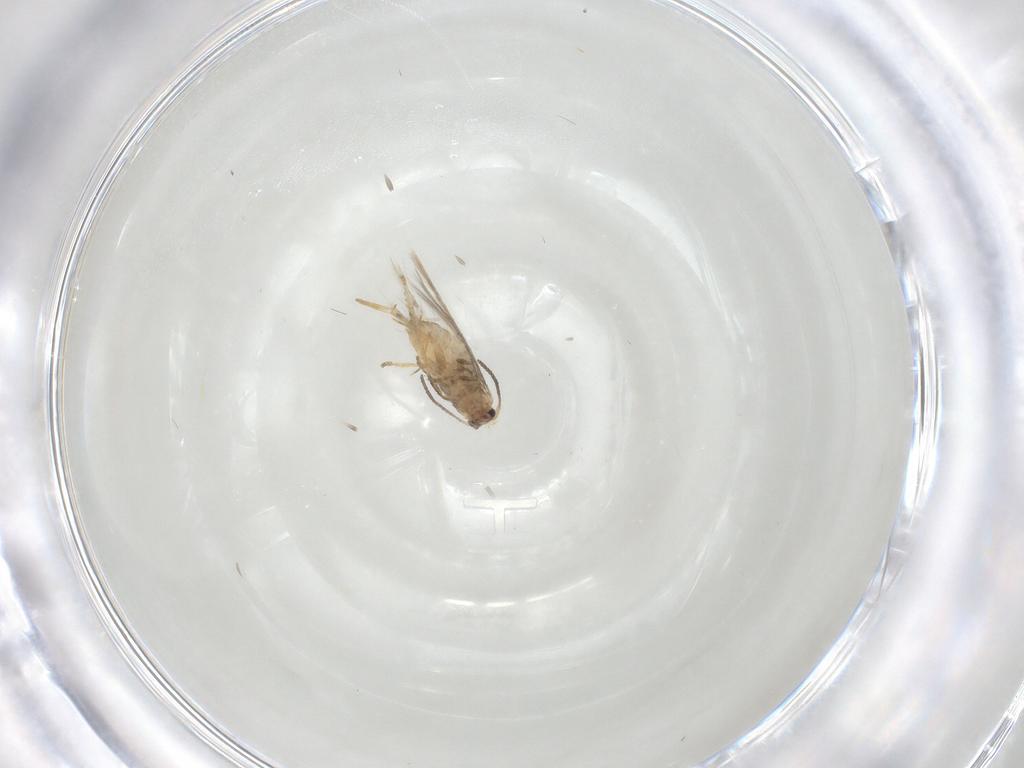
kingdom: Animalia
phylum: Arthropoda
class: Insecta
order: Lepidoptera
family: Nepticulidae
